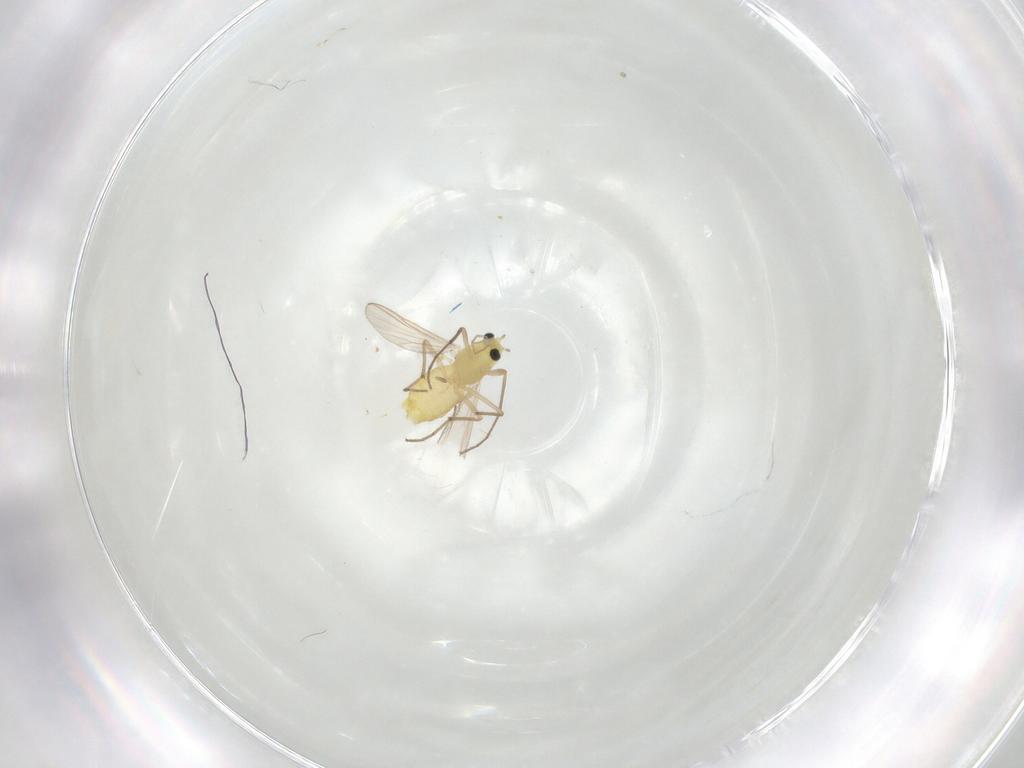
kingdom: Animalia
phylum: Arthropoda
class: Insecta
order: Diptera
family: Chironomidae
